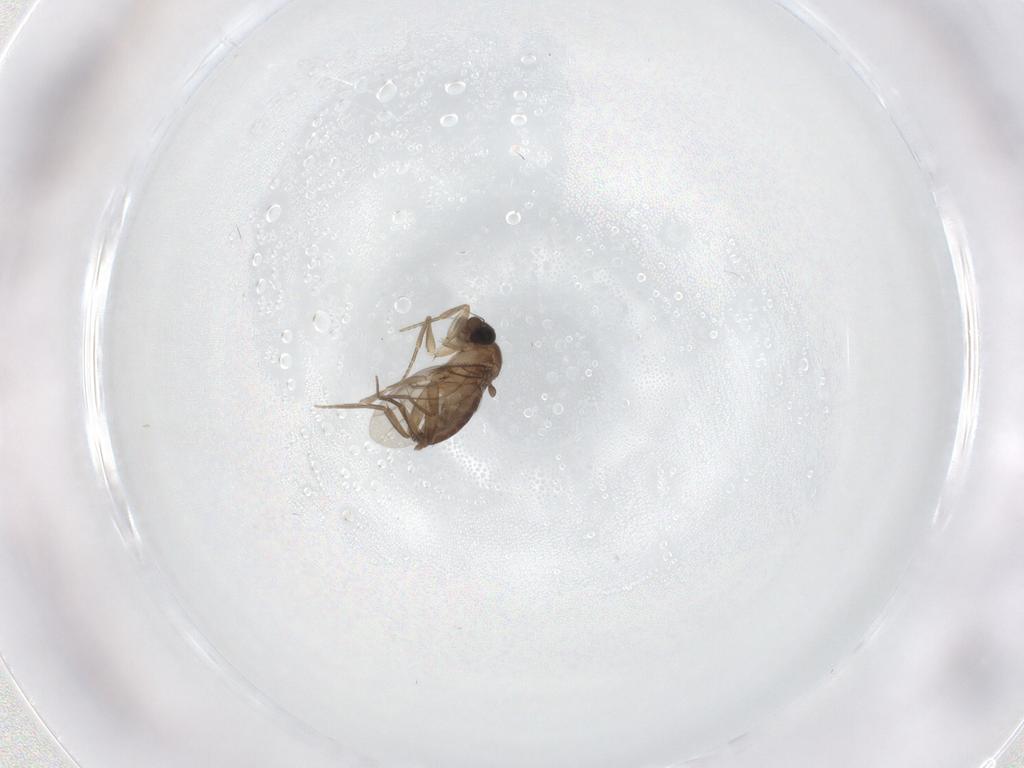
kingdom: Animalia
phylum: Arthropoda
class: Insecta
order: Diptera
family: Phoridae
